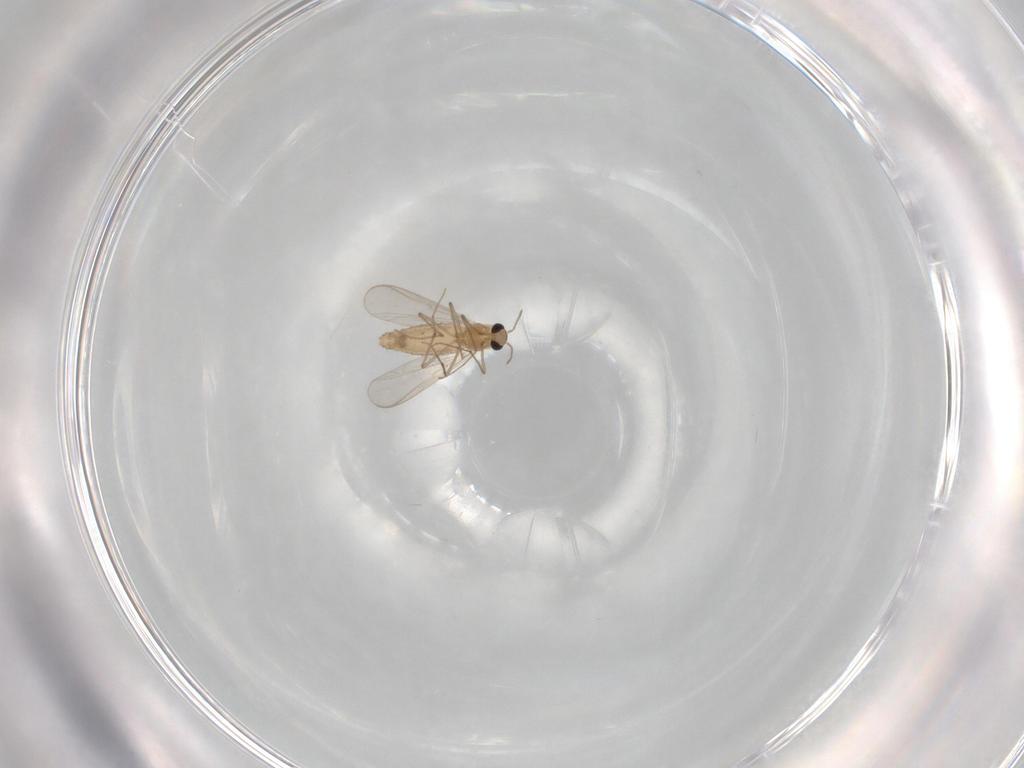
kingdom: Animalia
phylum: Arthropoda
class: Insecta
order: Diptera
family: Chironomidae
